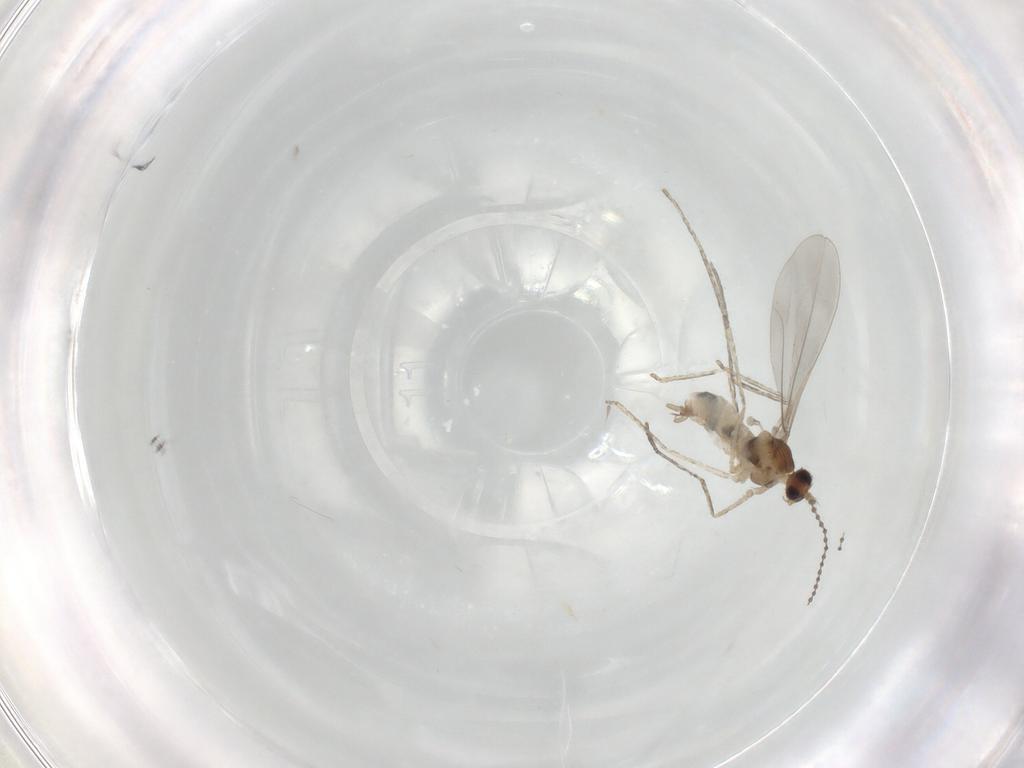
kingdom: Animalia
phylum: Arthropoda
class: Insecta
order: Diptera
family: Cecidomyiidae
